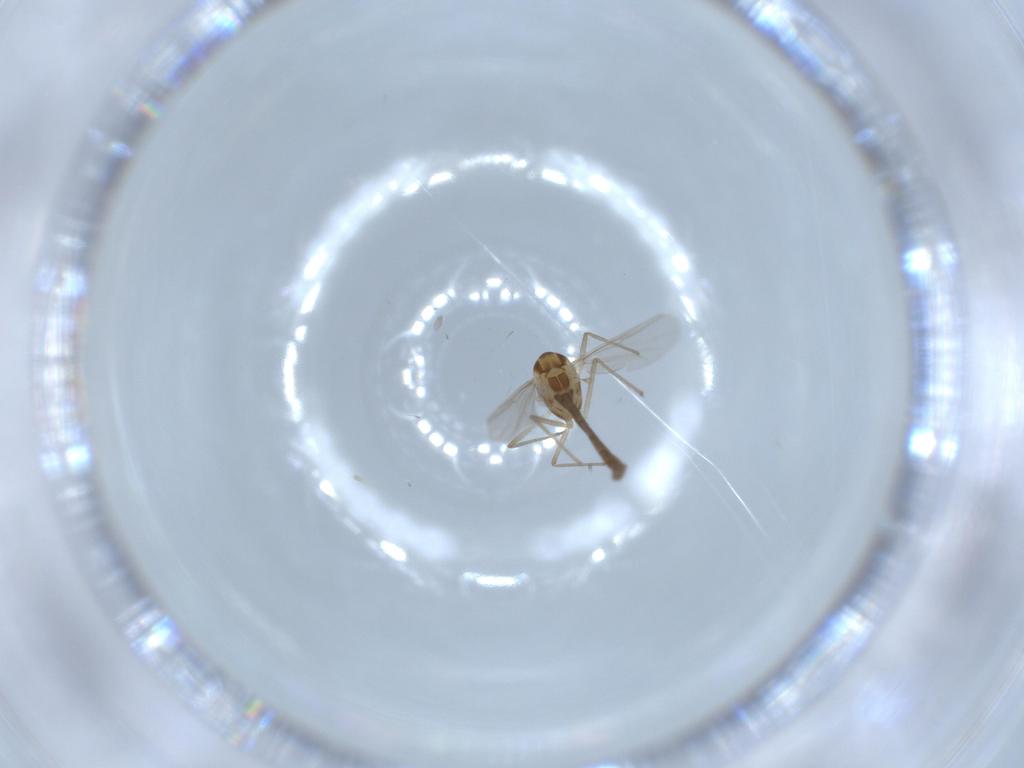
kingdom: Animalia
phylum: Arthropoda
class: Insecta
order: Diptera
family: Chironomidae
